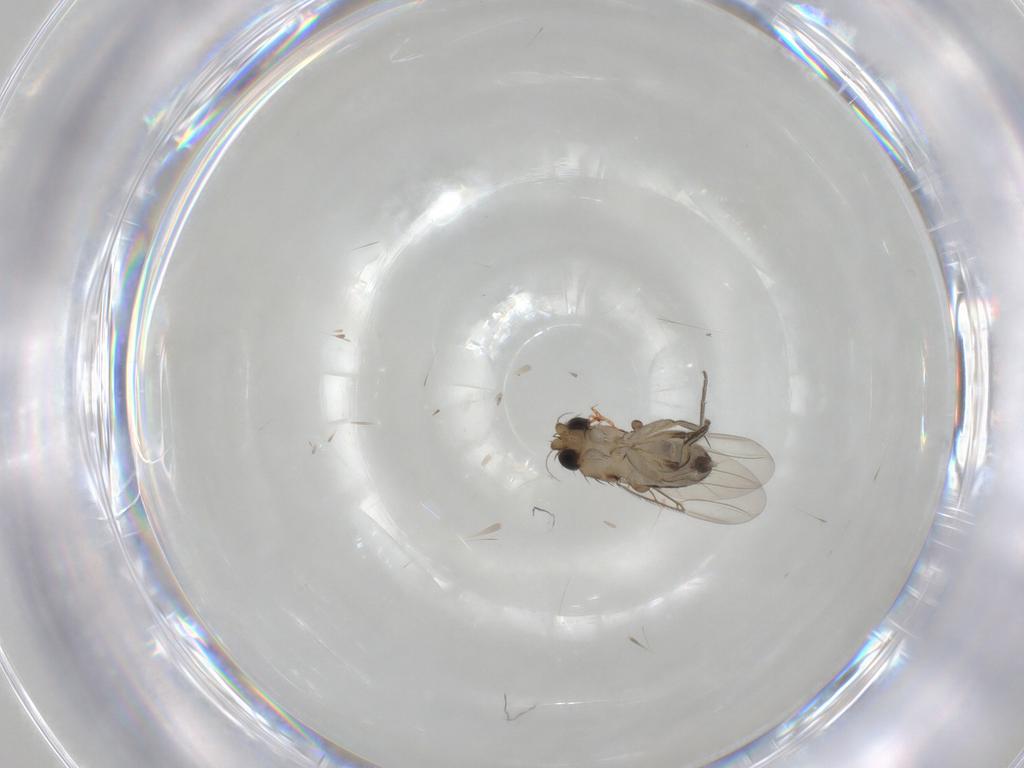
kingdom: Animalia
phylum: Arthropoda
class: Insecta
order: Diptera
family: Phoridae
